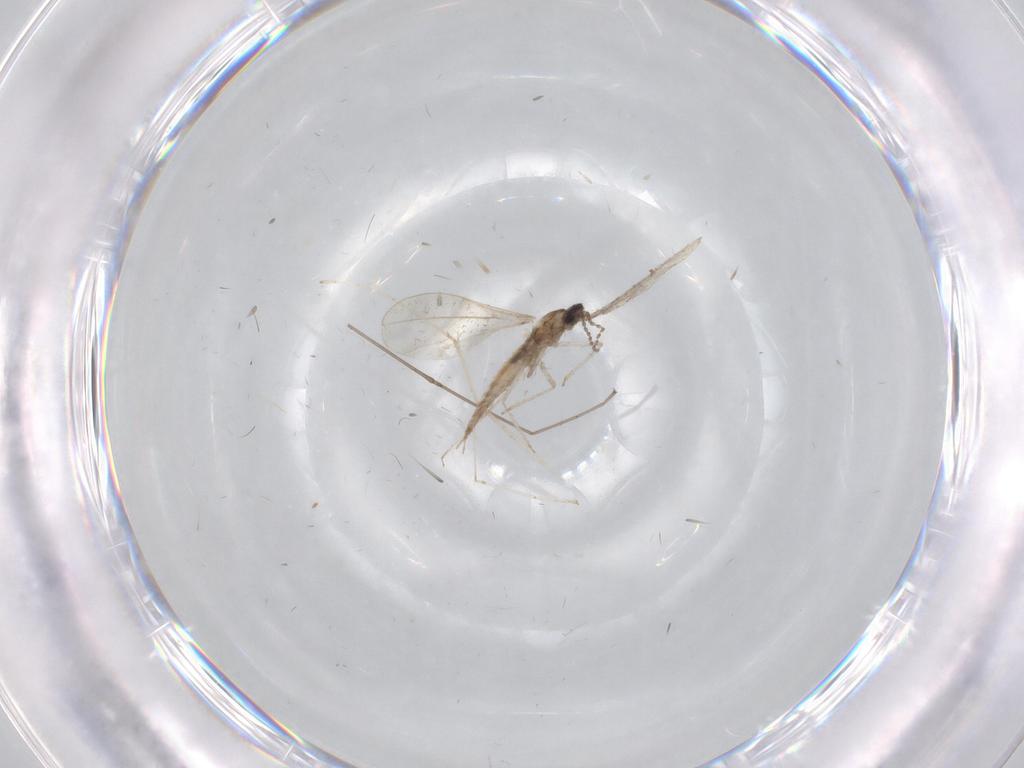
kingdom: Animalia
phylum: Arthropoda
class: Insecta
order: Diptera
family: Cecidomyiidae
